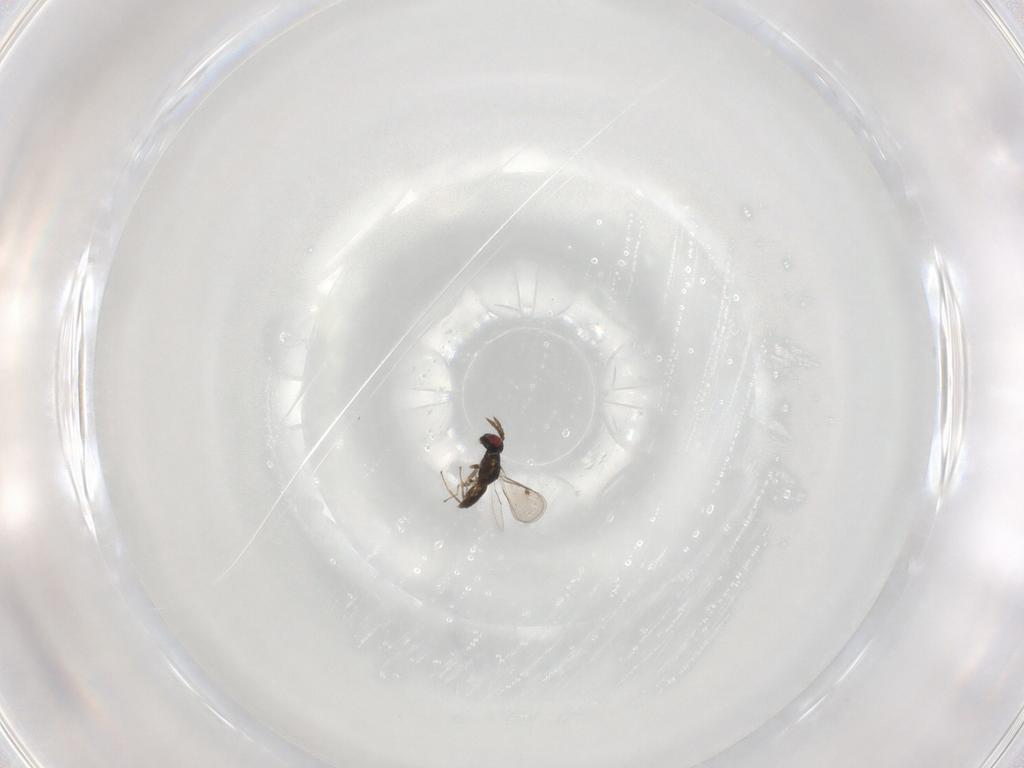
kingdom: Animalia
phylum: Arthropoda
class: Insecta
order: Hymenoptera
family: Eulophidae
